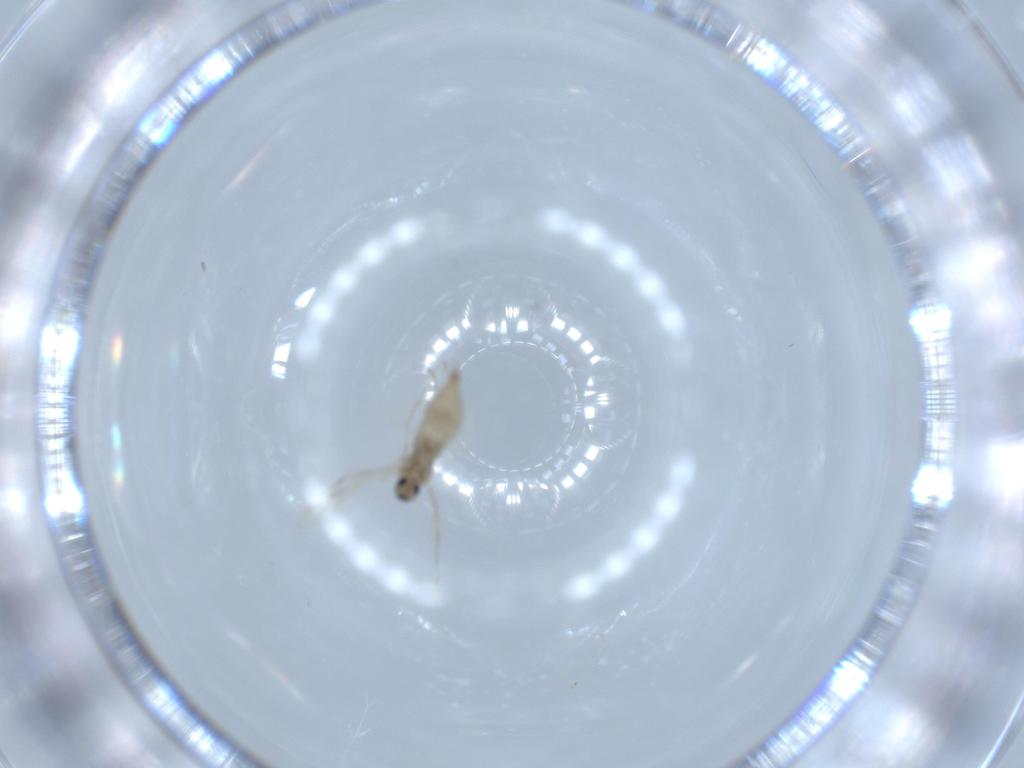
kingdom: Animalia
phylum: Arthropoda
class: Insecta
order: Diptera
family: Cecidomyiidae
